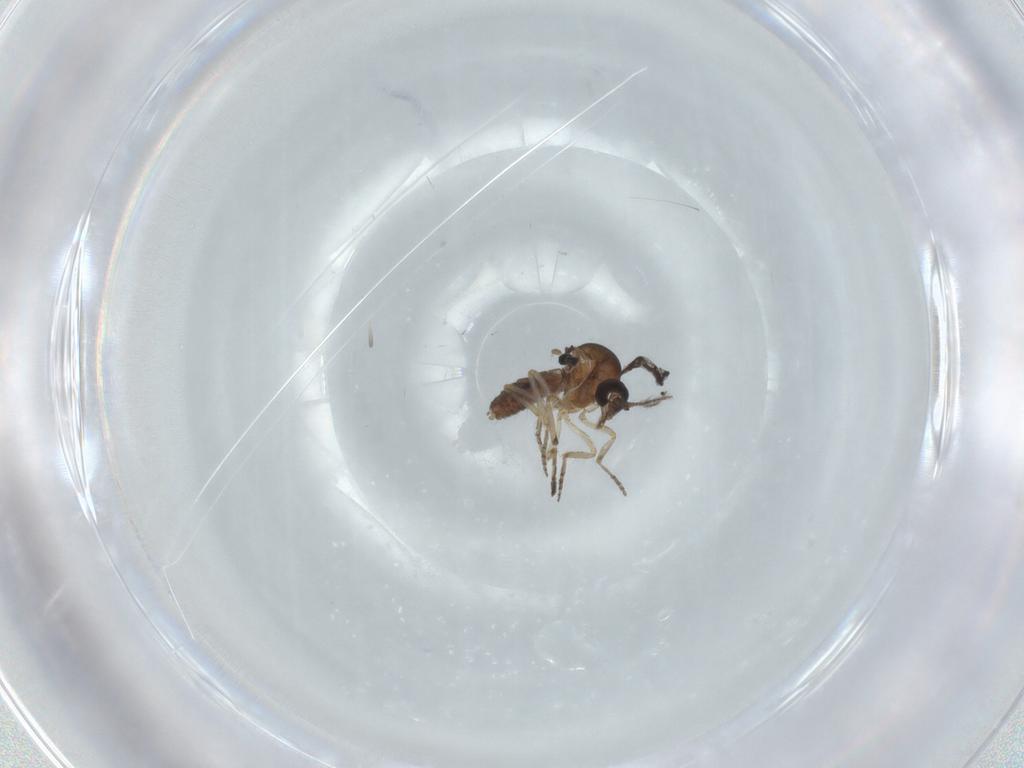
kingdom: Animalia
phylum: Arthropoda
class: Insecta
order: Diptera
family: Ceratopogonidae
